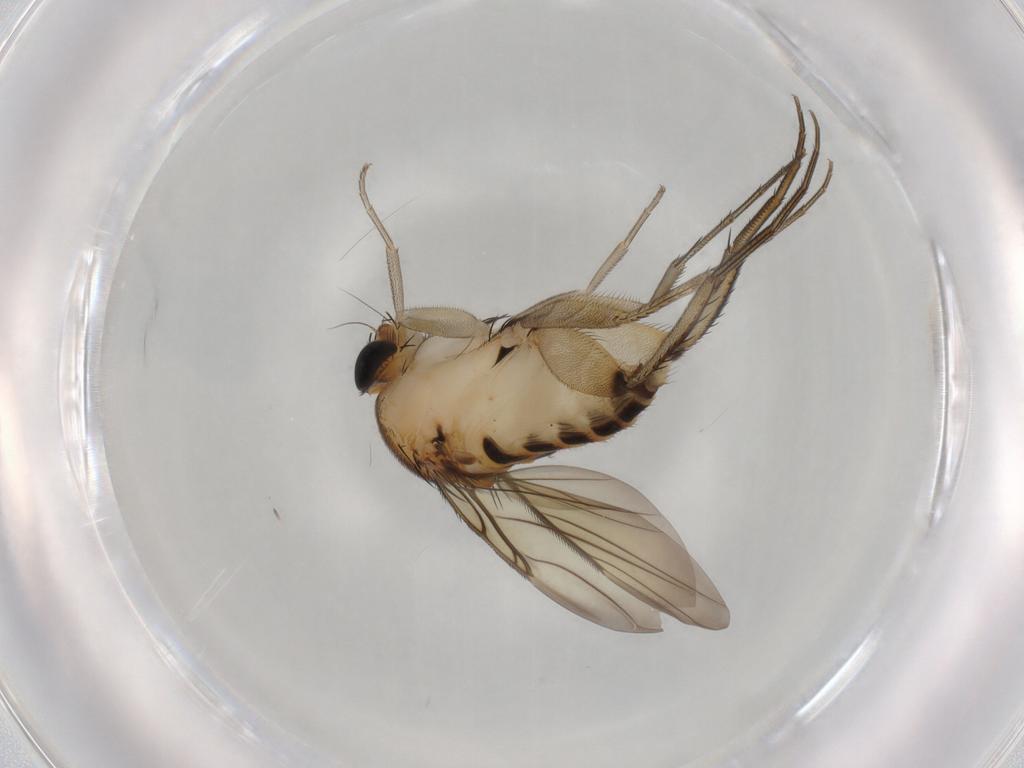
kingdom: Animalia
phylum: Arthropoda
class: Insecta
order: Diptera
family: Phoridae
